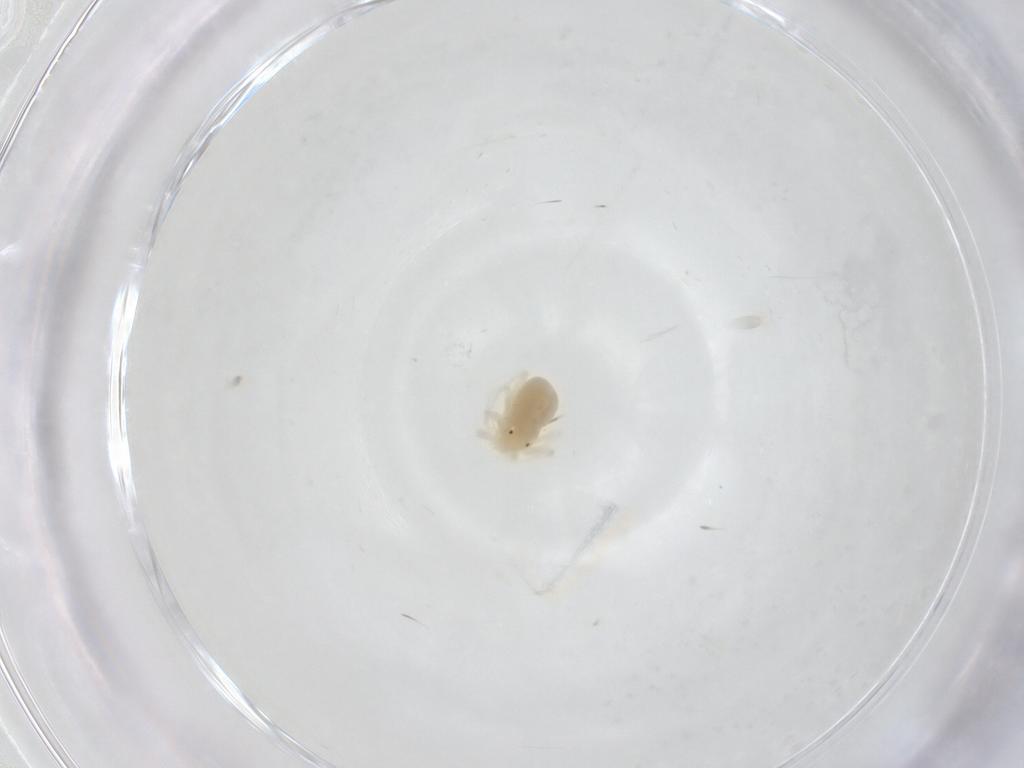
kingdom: Animalia
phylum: Arthropoda
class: Arachnida
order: Trombidiformes
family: Anystidae
